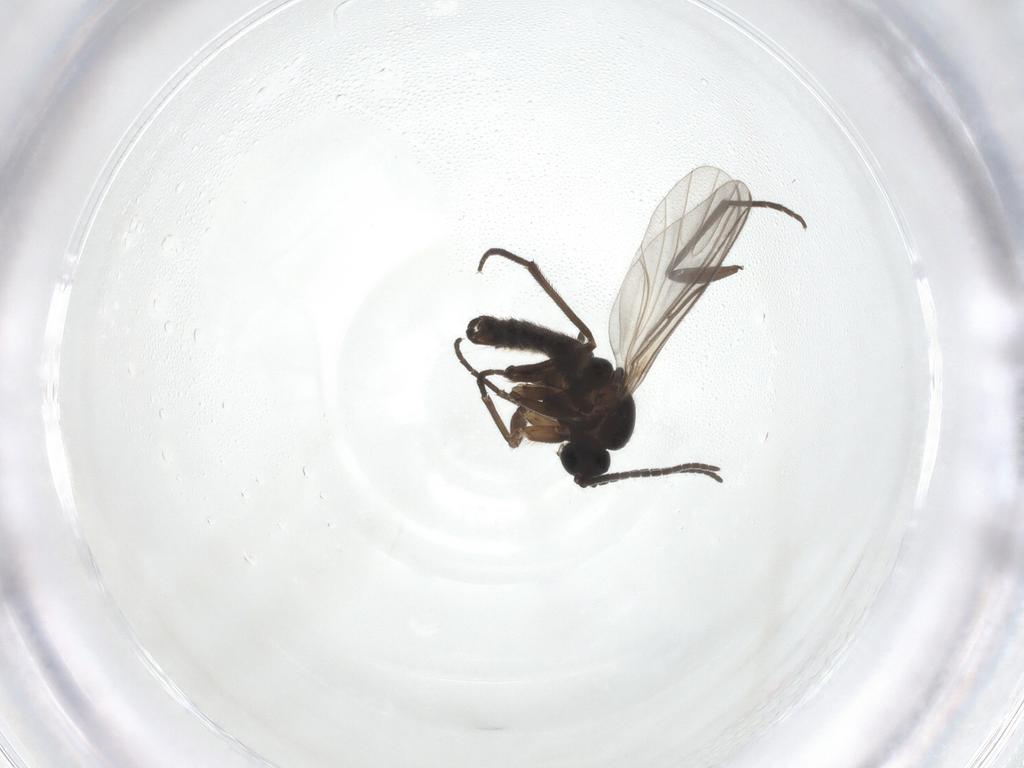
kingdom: Animalia
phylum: Arthropoda
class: Insecta
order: Diptera
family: Sciaridae
